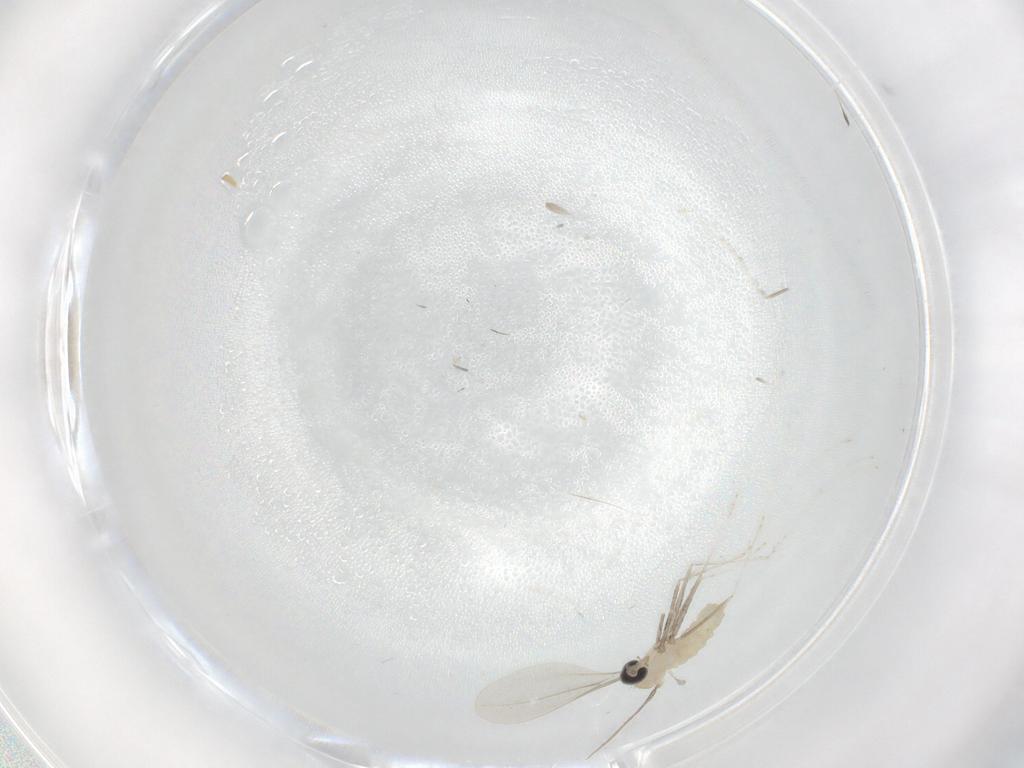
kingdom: Animalia
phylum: Arthropoda
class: Insecta
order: Diptera
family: Cecidomyiidae
